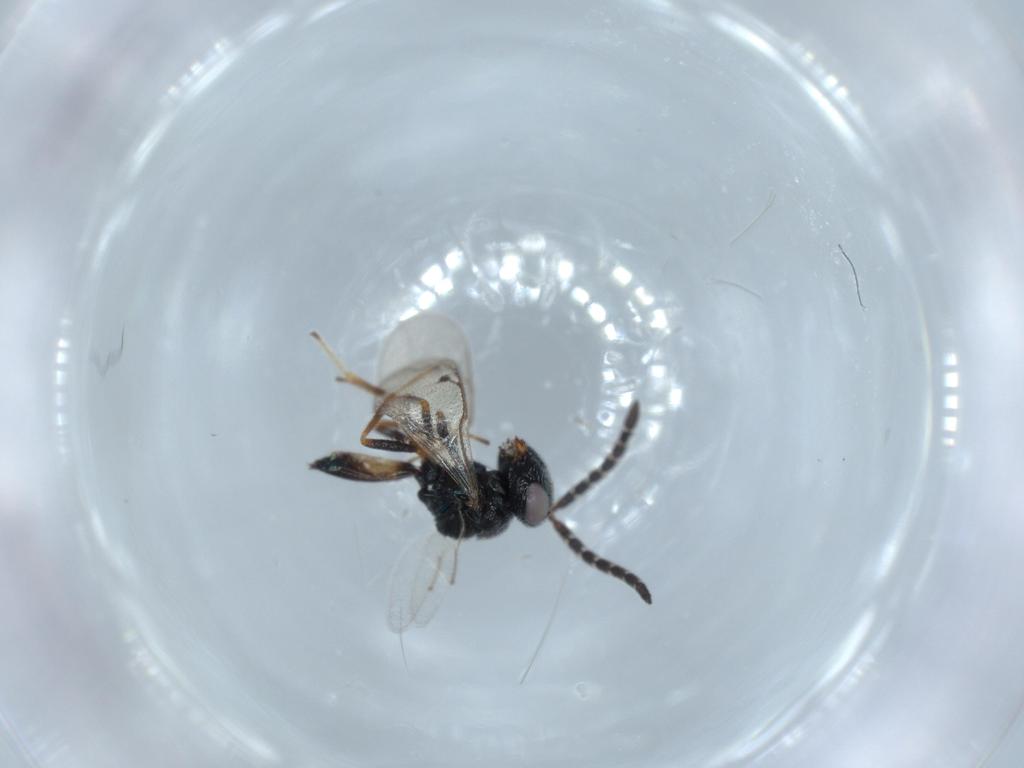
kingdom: Animalia
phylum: Arthropoda
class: Insecta
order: Hymenoptera
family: Agaonidae
